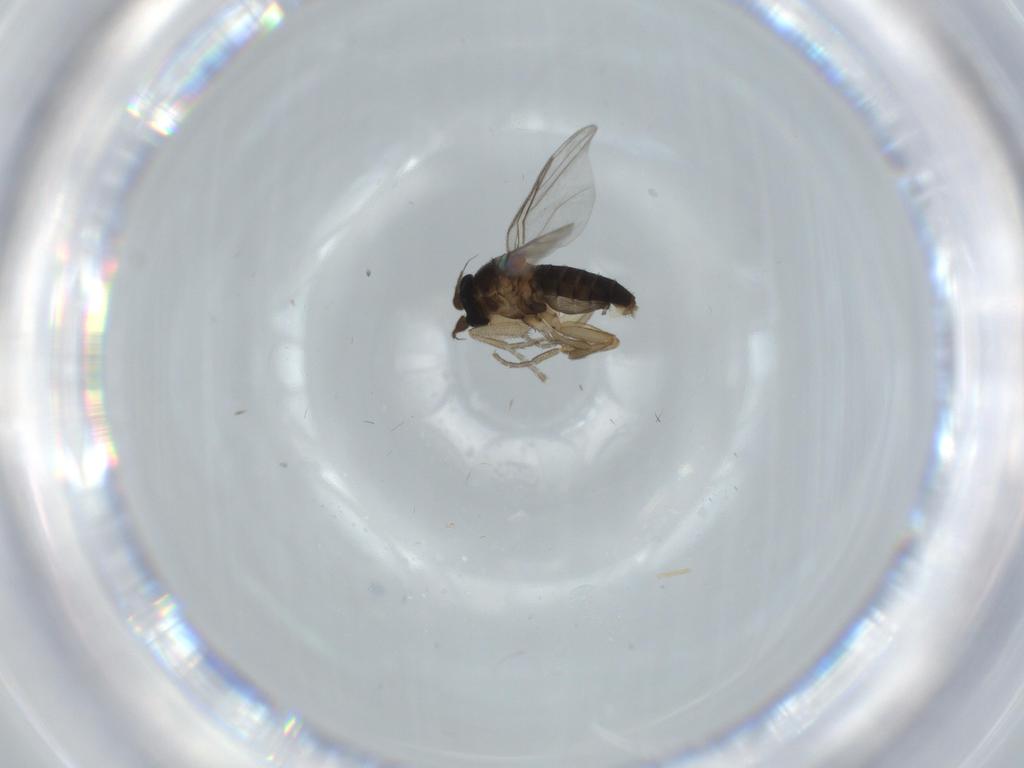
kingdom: Animalia
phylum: Arthropoda
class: Insecta
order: Diptera
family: Phoridae
